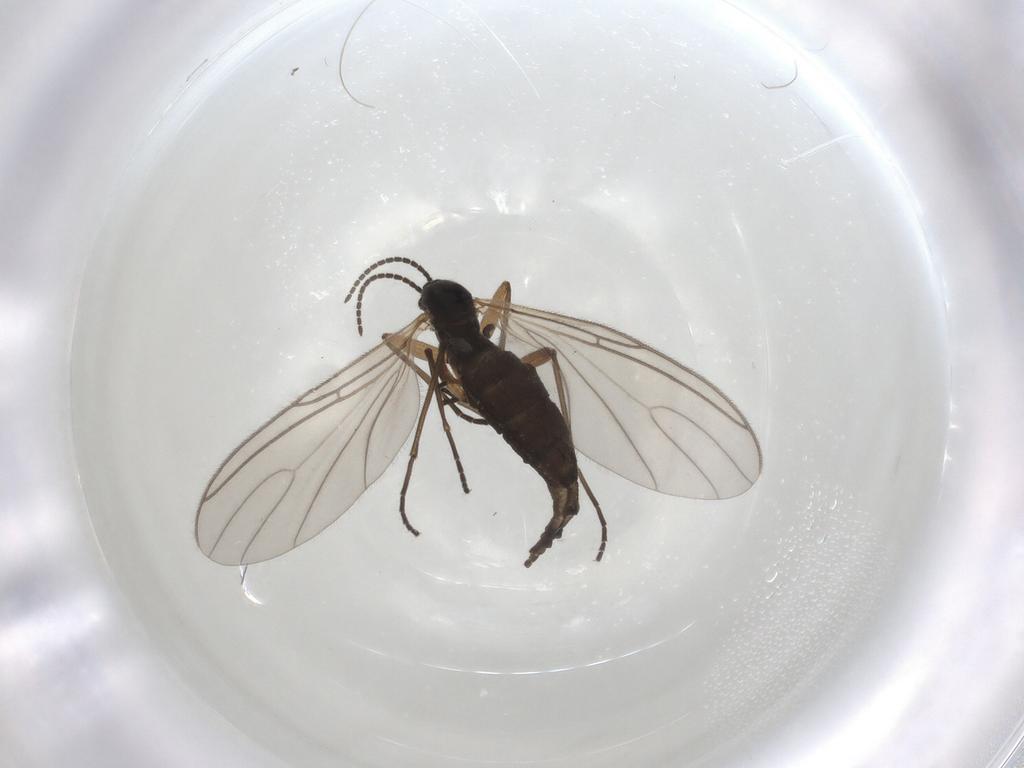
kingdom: Animalia
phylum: Arthropoda
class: Insecta
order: Diptera
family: Sciaridae
